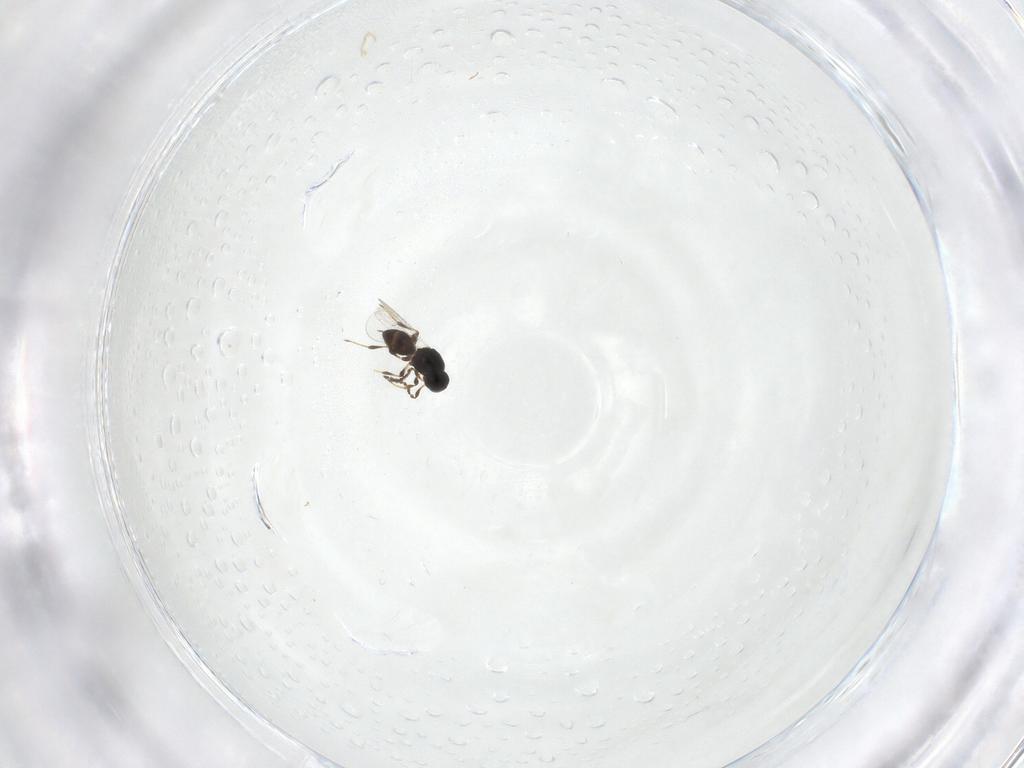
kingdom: Animalia
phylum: Arthropoda
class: Insecta
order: Hymenoptera
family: Platygastridae
